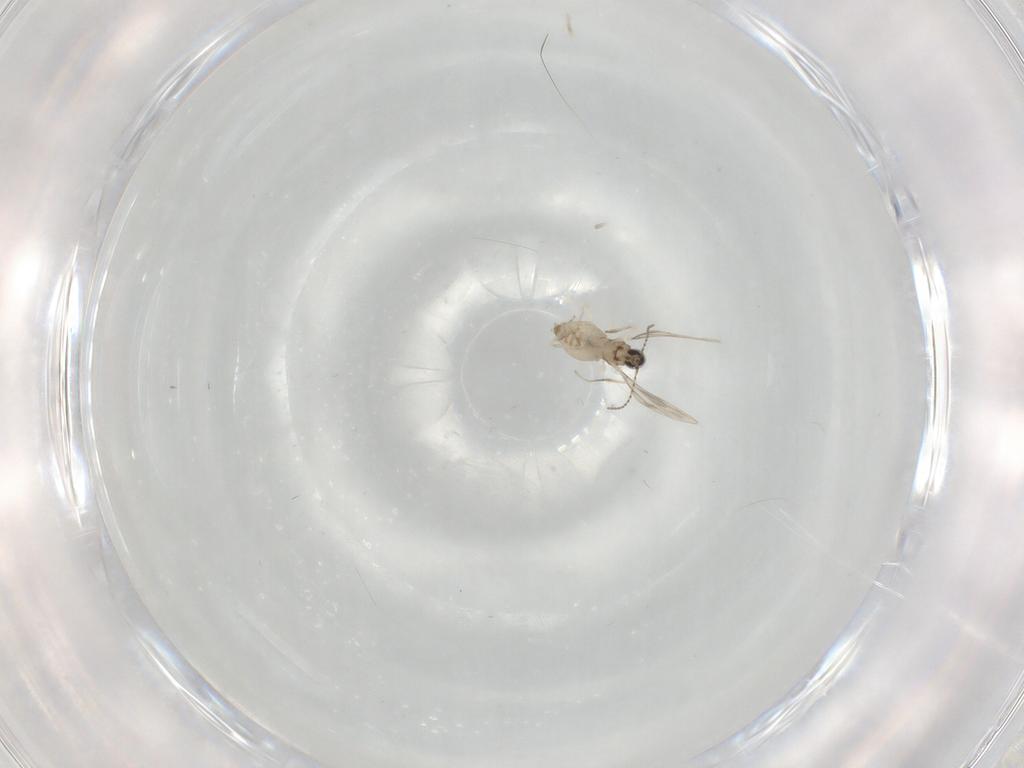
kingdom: Animalia
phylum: Arthropoda
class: Insecta
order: Diptera
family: Cecidomyiidae
